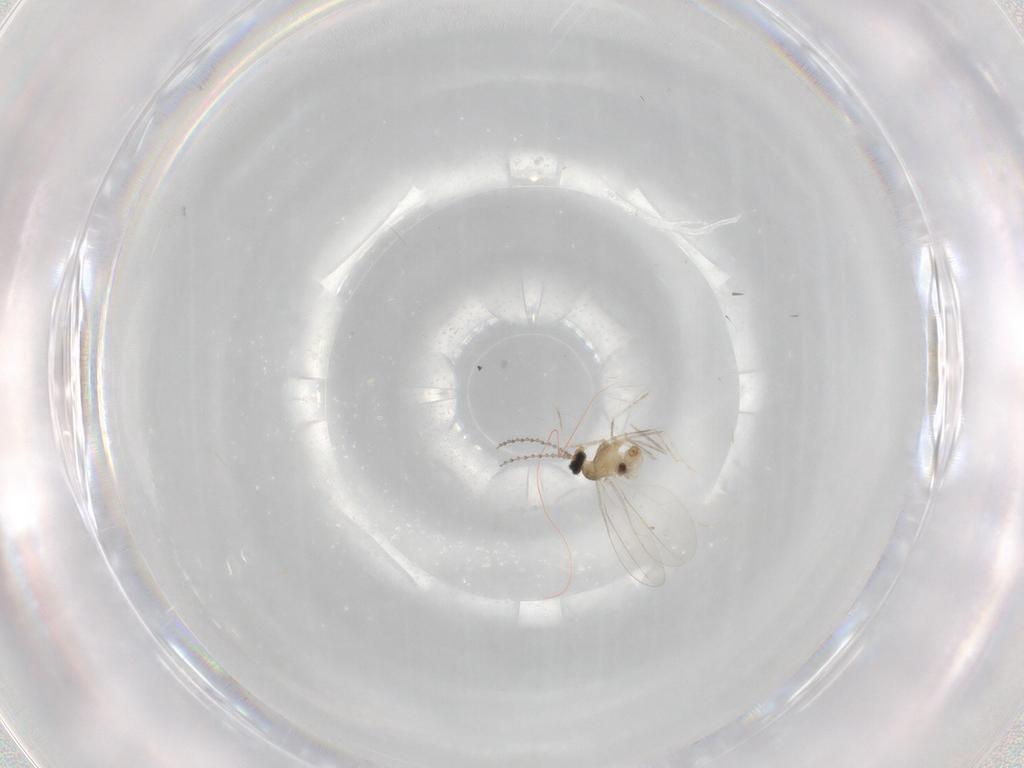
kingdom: Animalia
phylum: Arthropoda
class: Insecta
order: Diptera
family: Cecidomyiidae
